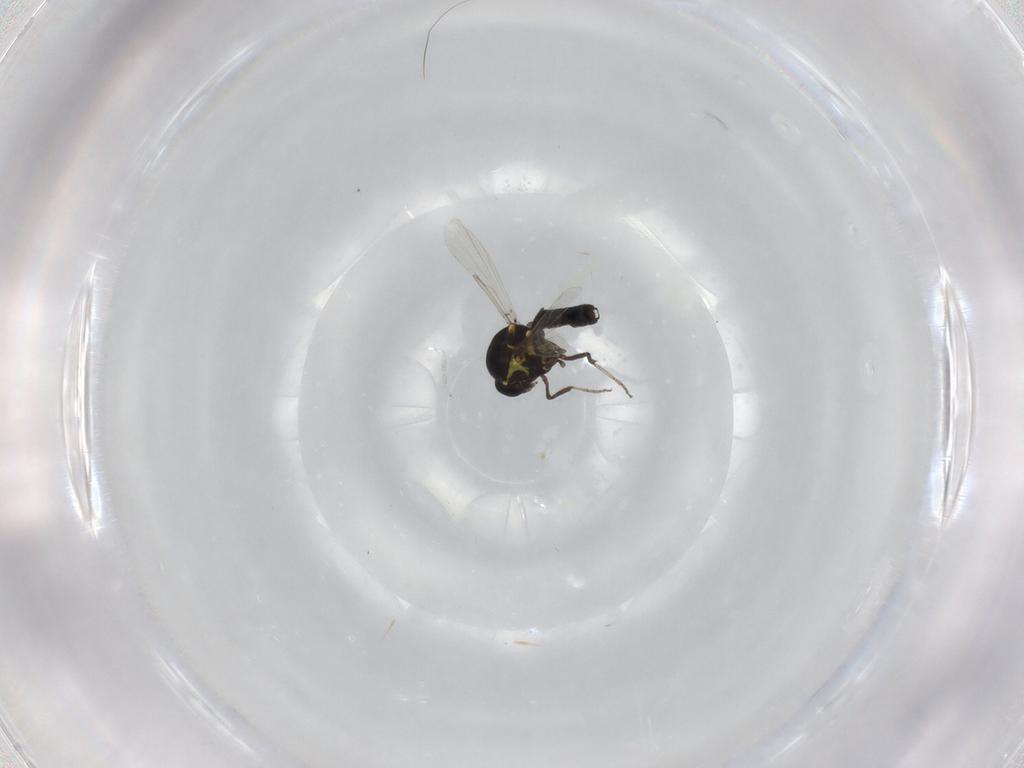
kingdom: Animalia
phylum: Arthropoda
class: Insecta
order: Diptera
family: Ceratopogonidae
